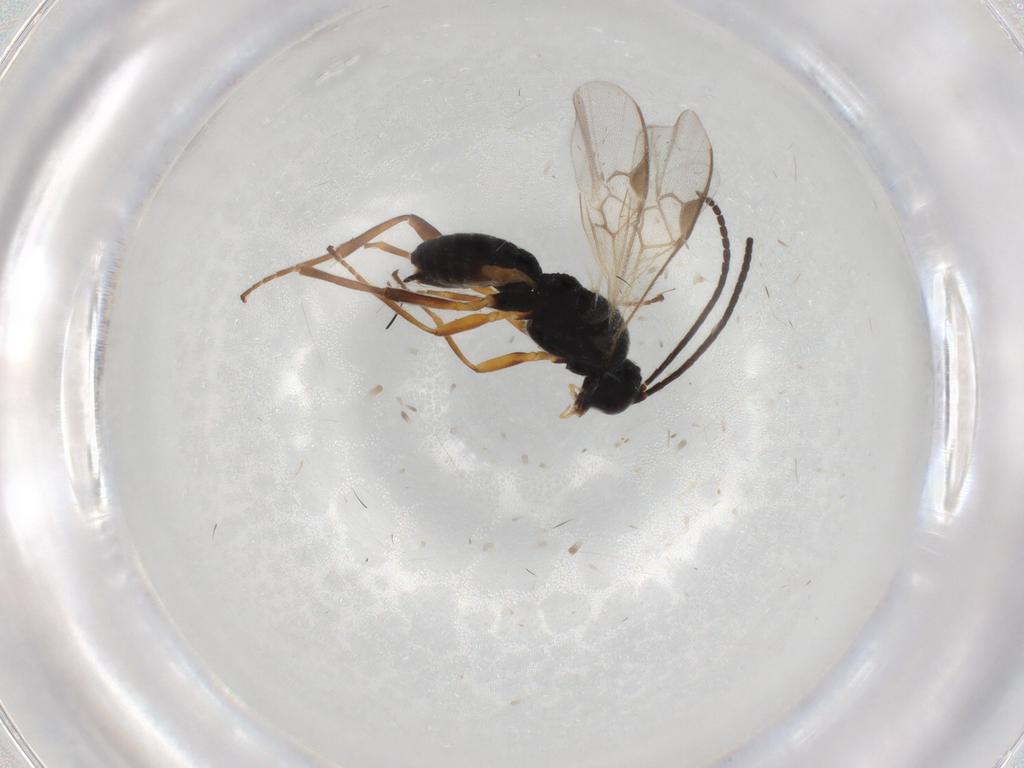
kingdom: Animalia
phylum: Arthropoda
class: Insecta
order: Hymenoptera
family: Braconidae
